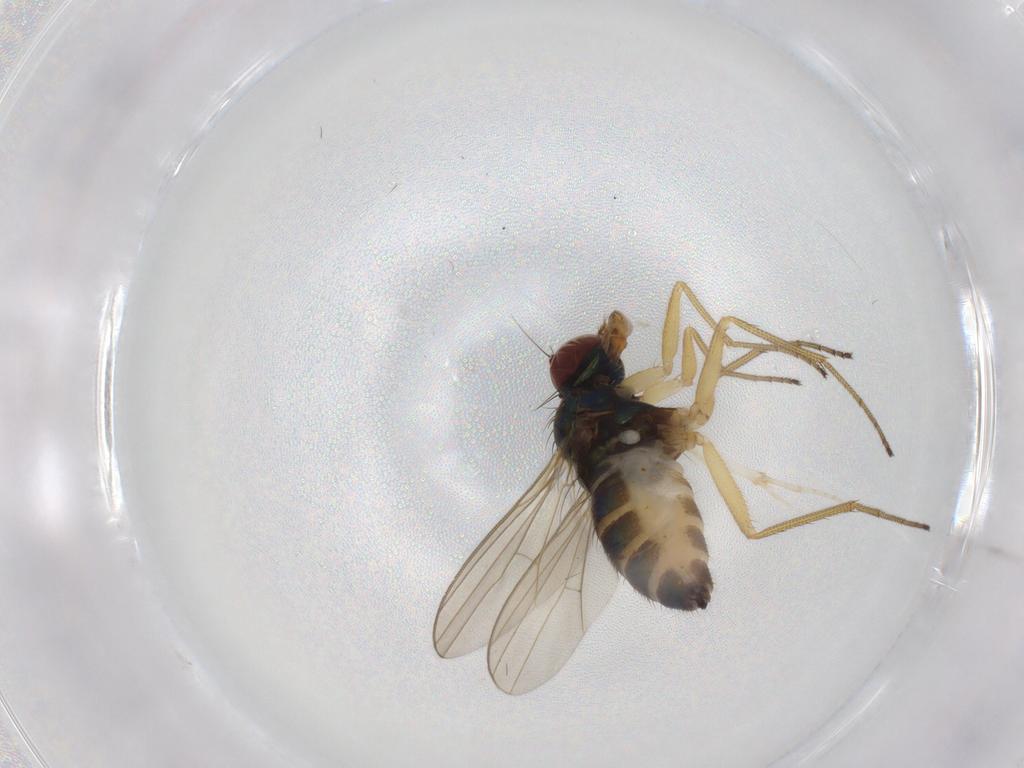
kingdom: Animalia
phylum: Arthropoda
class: Insecta
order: Diptera
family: Dolichopodidae
